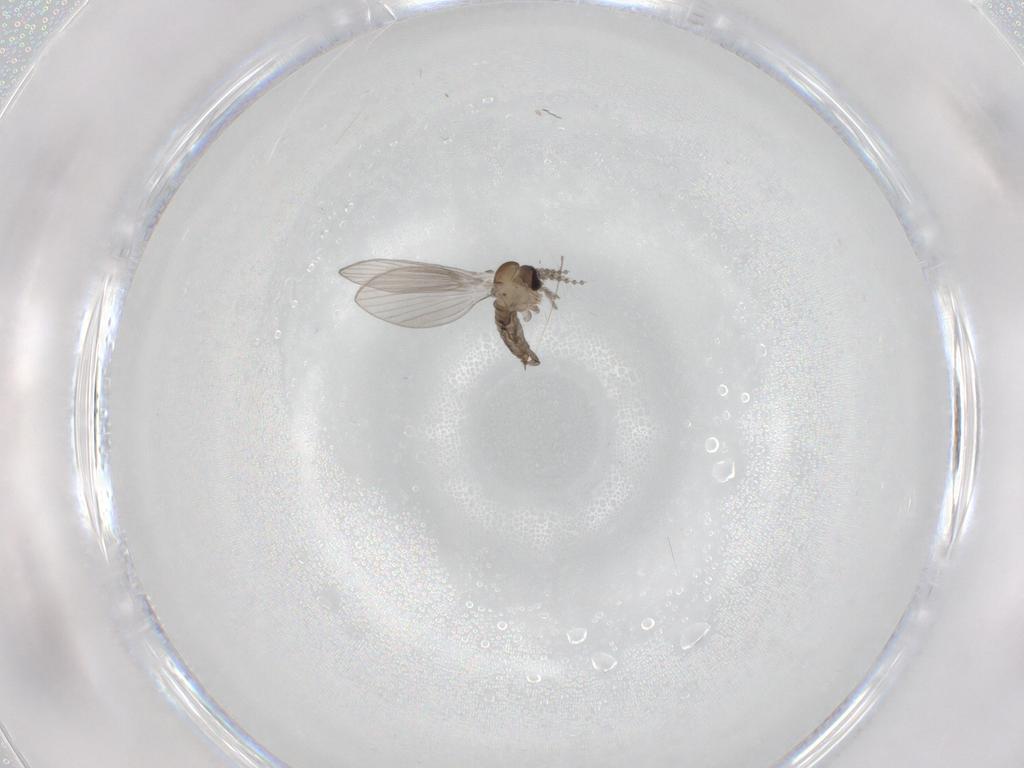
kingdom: Animalia
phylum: Arthropoda
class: Insecta
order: Diptera
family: Psychodidae
